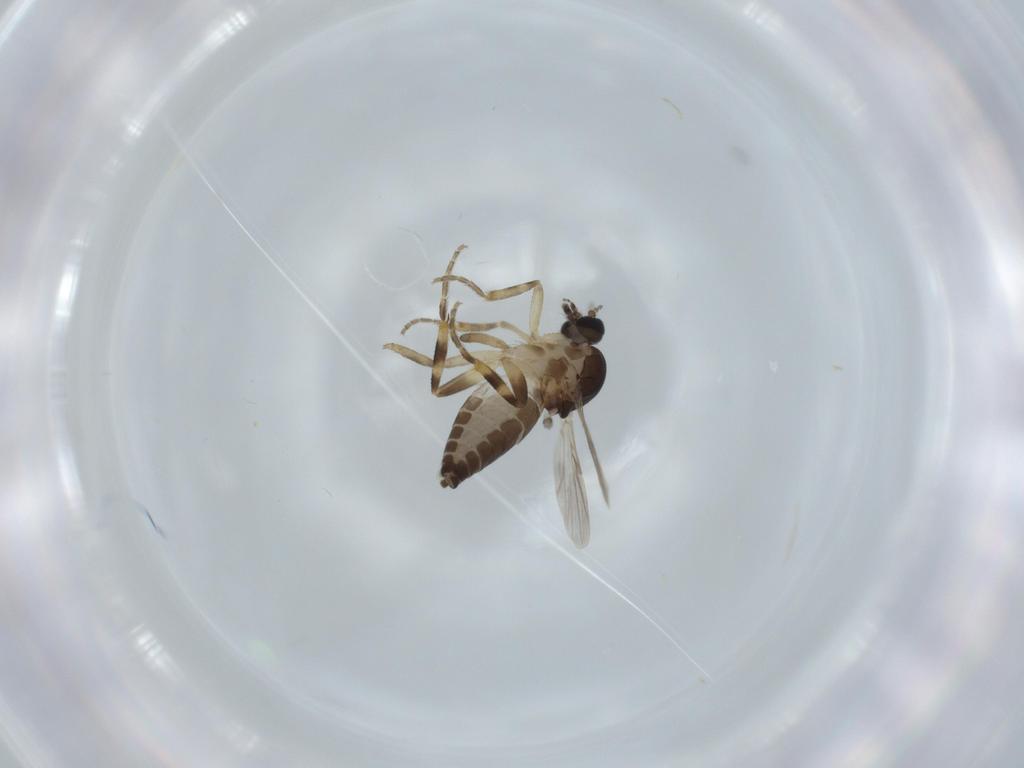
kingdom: Animalia
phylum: Arthropoda
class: Insecta
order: Diptera
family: Ceratopogonidae
